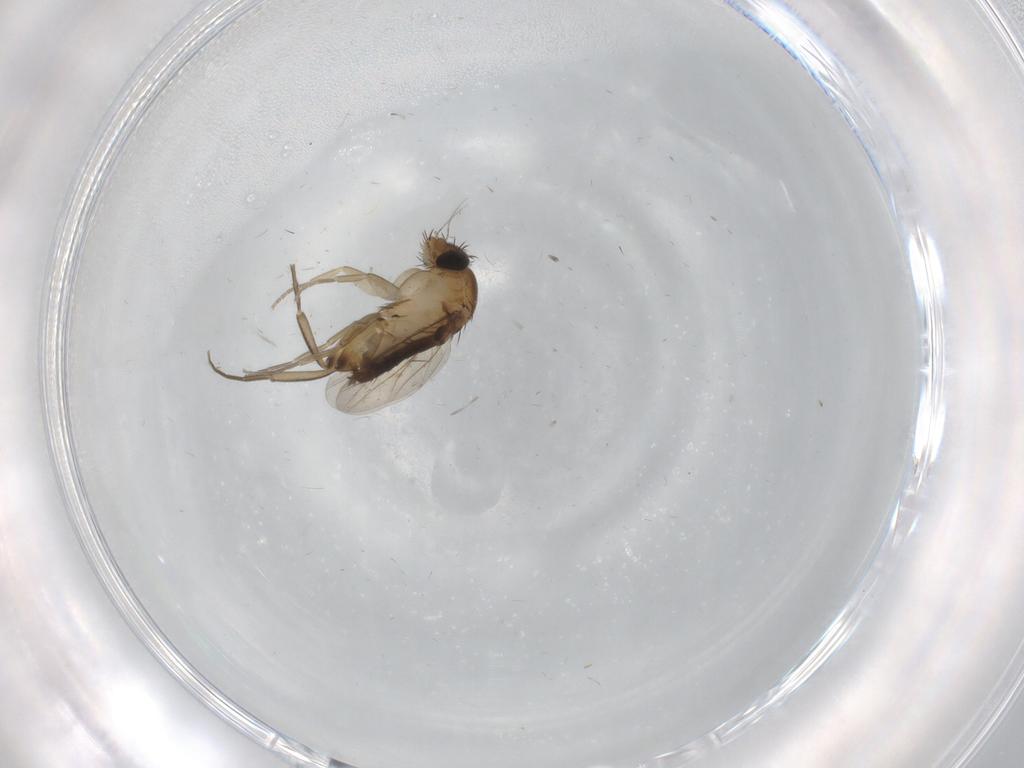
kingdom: Animalia
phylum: Arthropoda
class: Insecta
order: Diptera
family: Phoridae
